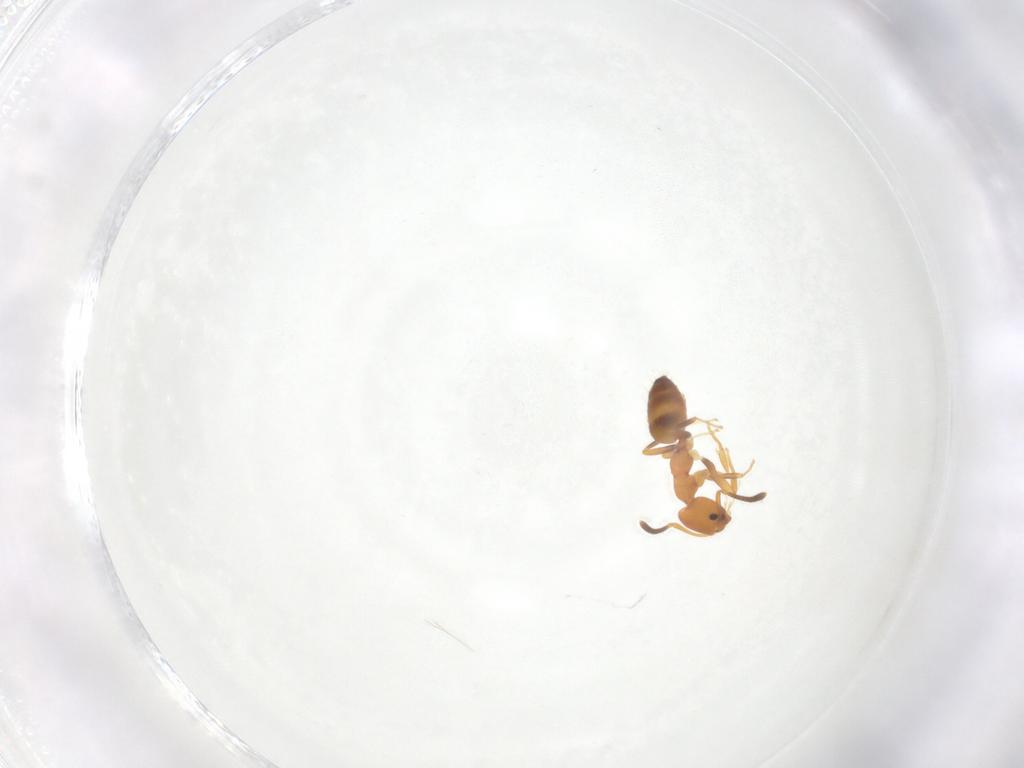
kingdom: Animalia
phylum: Arthropoda
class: Insecta
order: Hymenoptera
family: Formicidae
